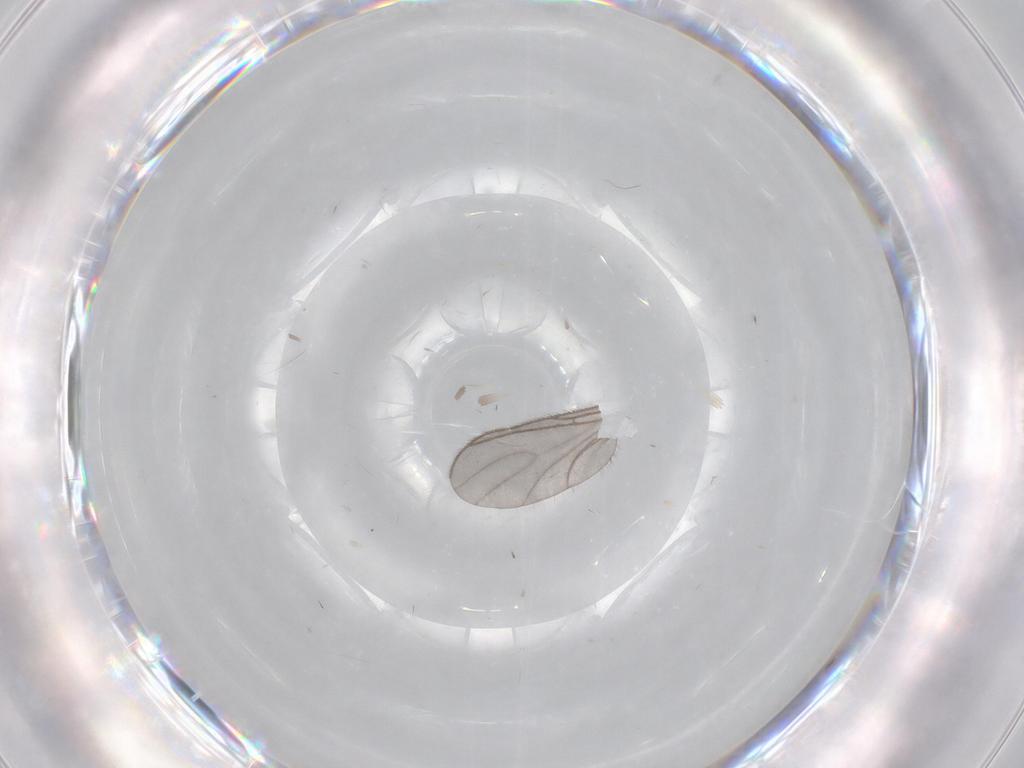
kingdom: Animalia
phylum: Arthropoda
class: Insecta
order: Diptera
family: Sciaridae
